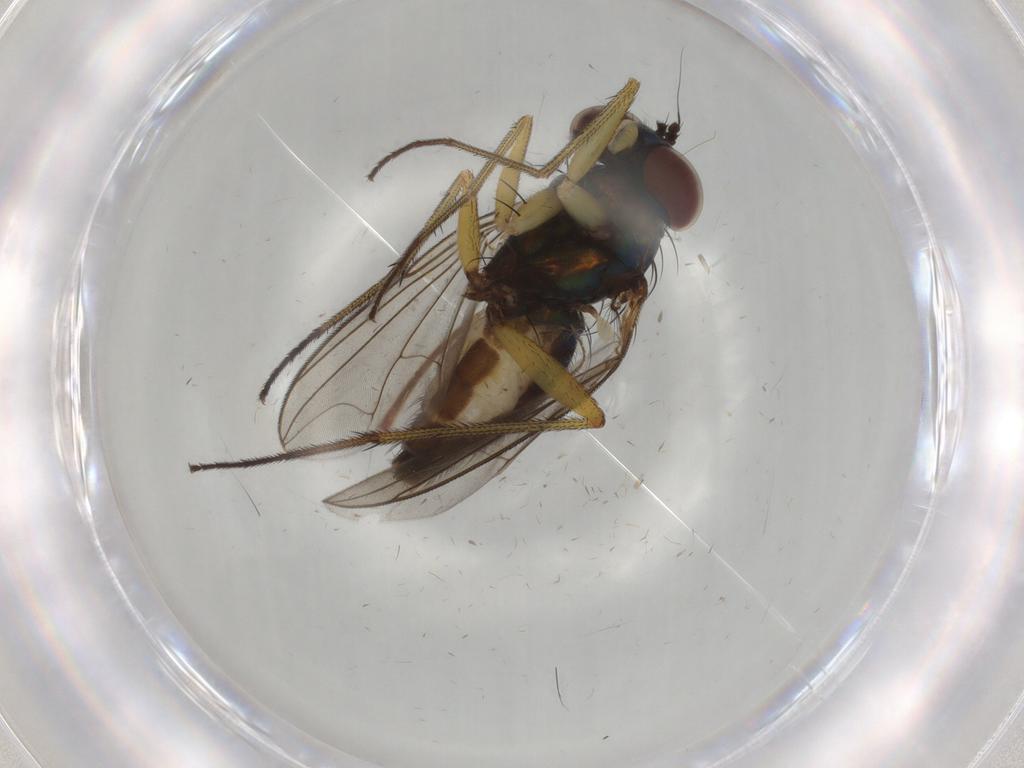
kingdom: Animalia
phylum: Arthropoda
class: Insecta
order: Diptera
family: Dolichopodidae
